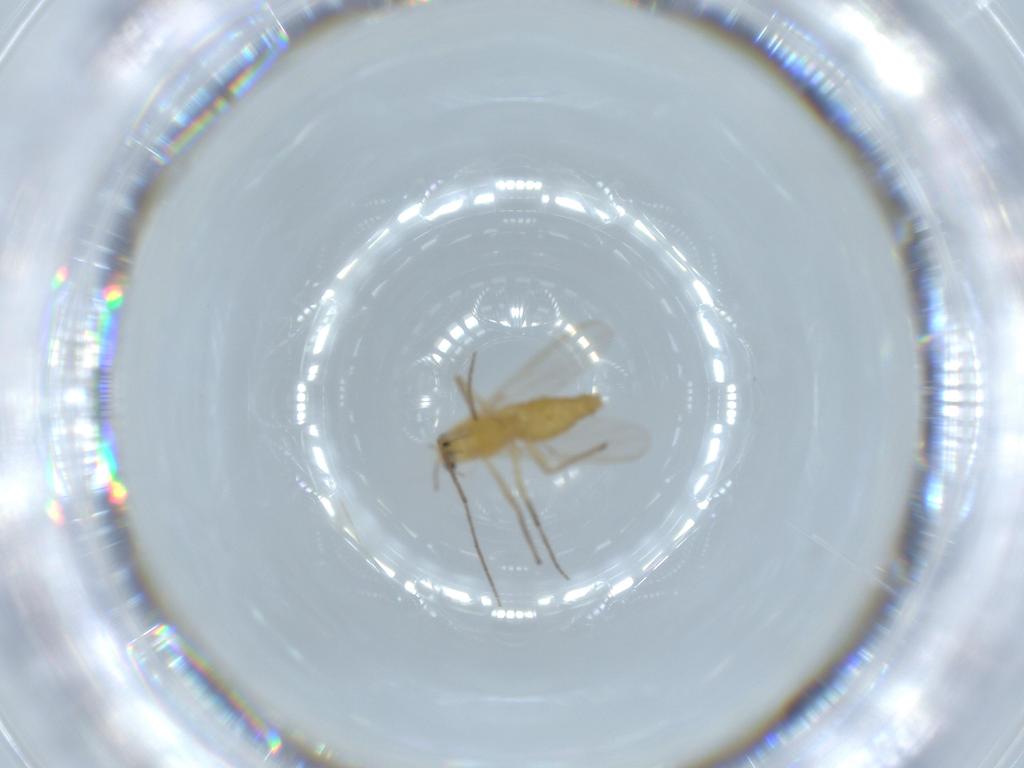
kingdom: Animalia
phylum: Arthropoda
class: Insecta
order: Diptera
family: Chironomidae
